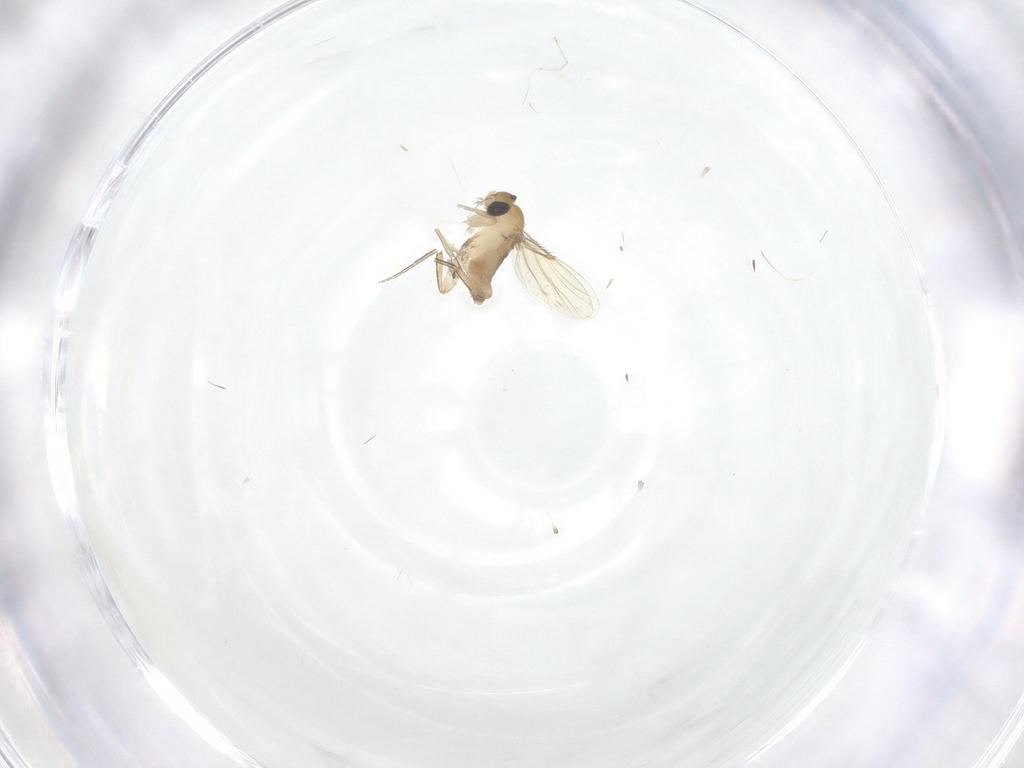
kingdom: Animalia
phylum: Arthropoda
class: Insecta
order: Diptera
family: Phoridae
